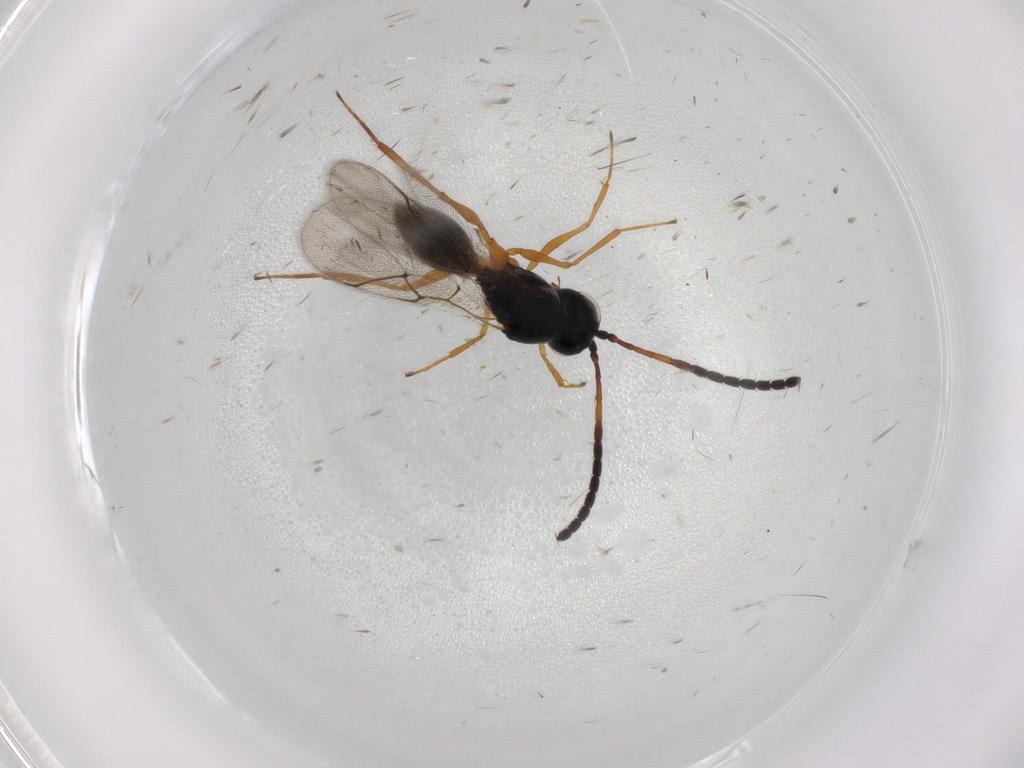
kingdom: Animalia
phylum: Arthropoda
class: Insecta
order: Hymenoptera
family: Figitidae
